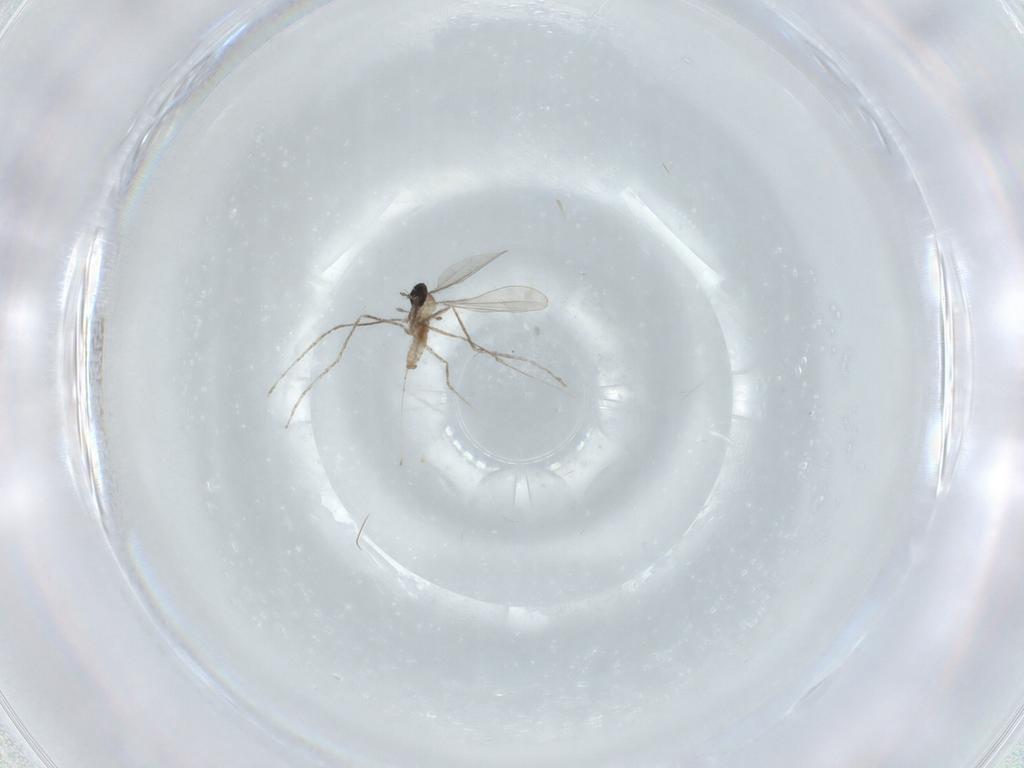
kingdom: Animalia
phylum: Arthropoda
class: Insecta
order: Diptera
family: Cecidomyiidae
